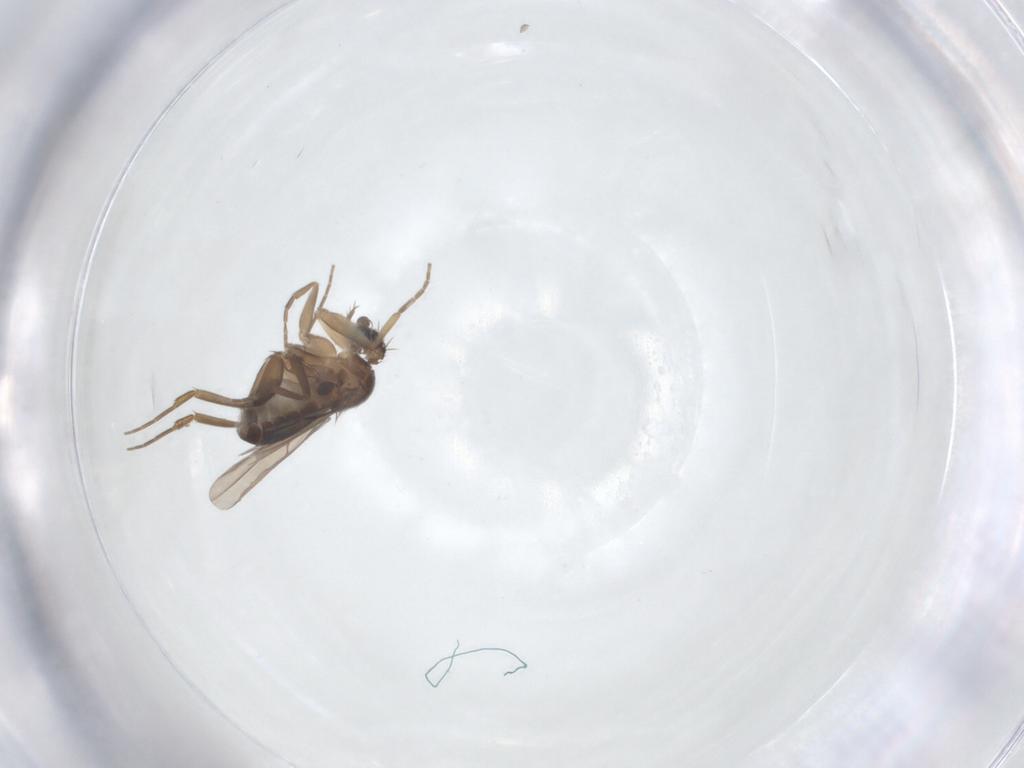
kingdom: Animalia
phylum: Arthropoda
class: Insecta
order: Diptera
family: Phoridae
